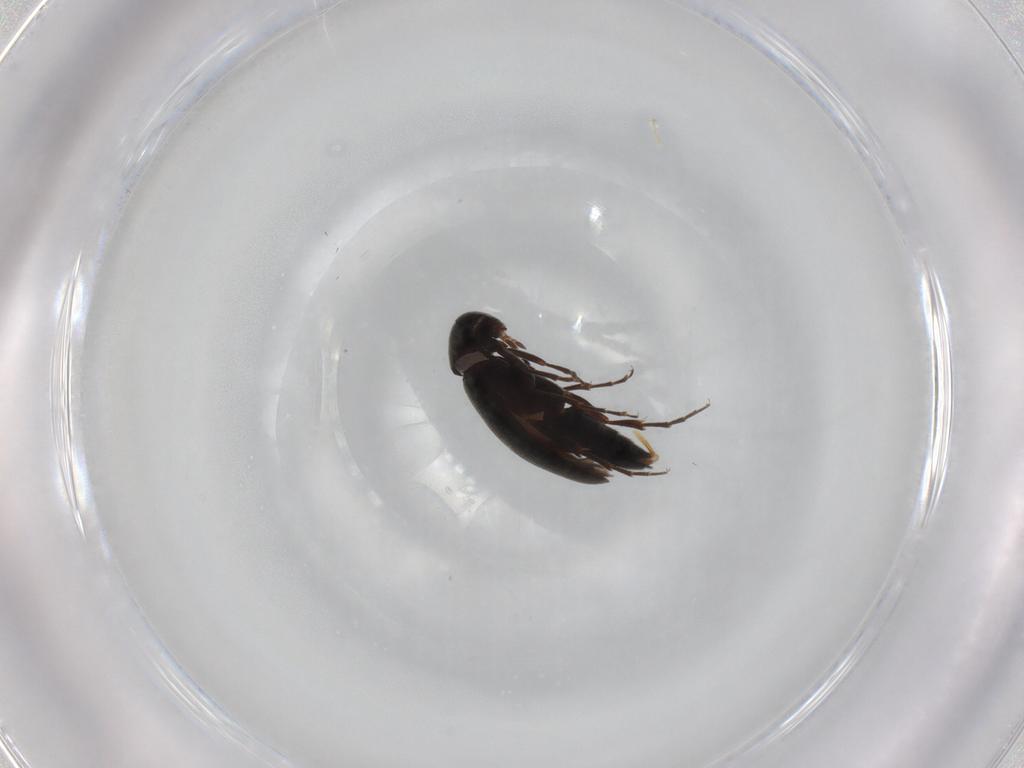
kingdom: Animalia
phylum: Arthropoda
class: Insecta
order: Coleoptera
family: Scraptiidae
